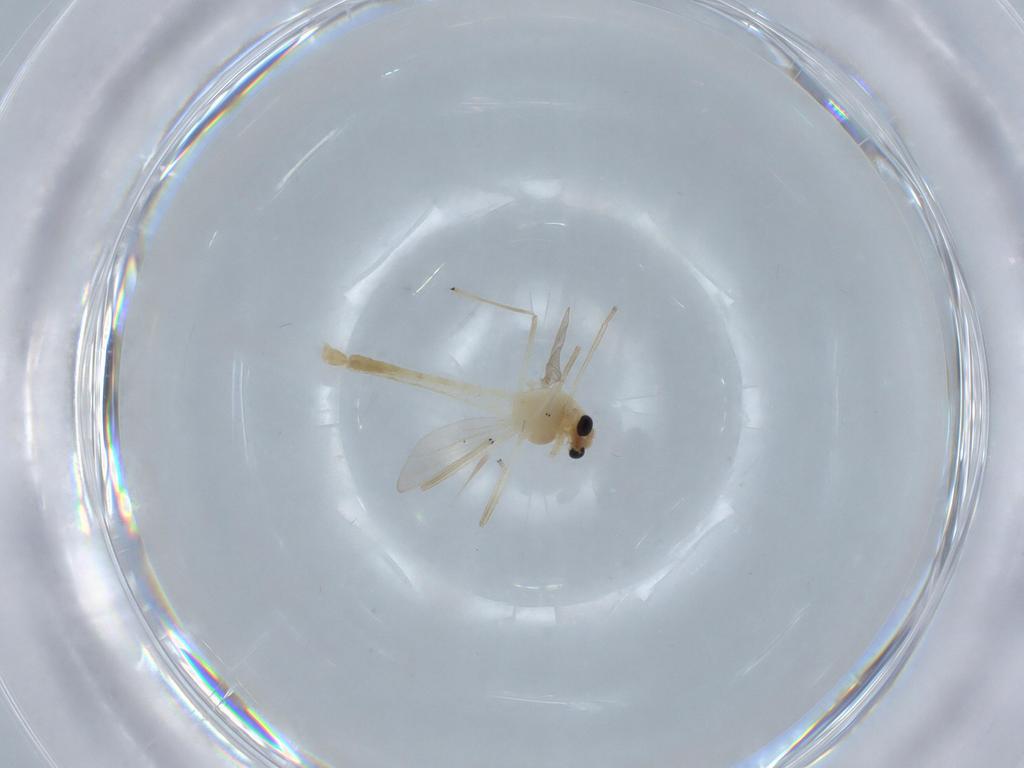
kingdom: Animalia
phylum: Arthropoda
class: Insecta
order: Diptera
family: Chironomidae
